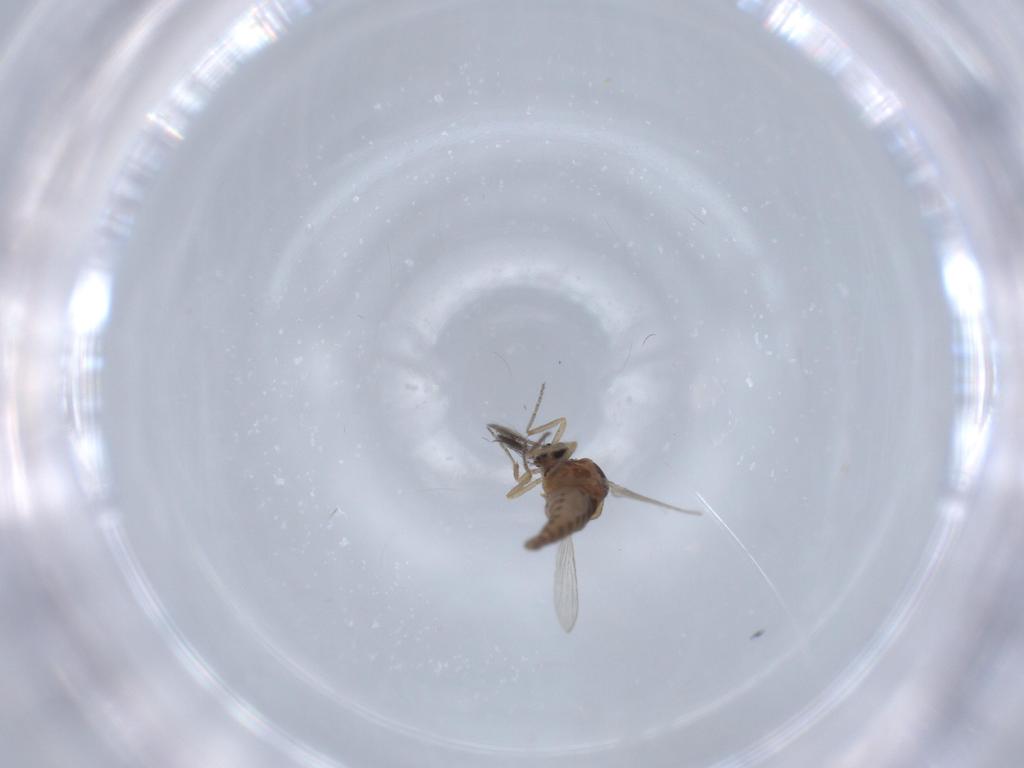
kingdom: Animalia
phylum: Arthropoda
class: Insecta
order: Diptera
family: Ceratopogonidae
